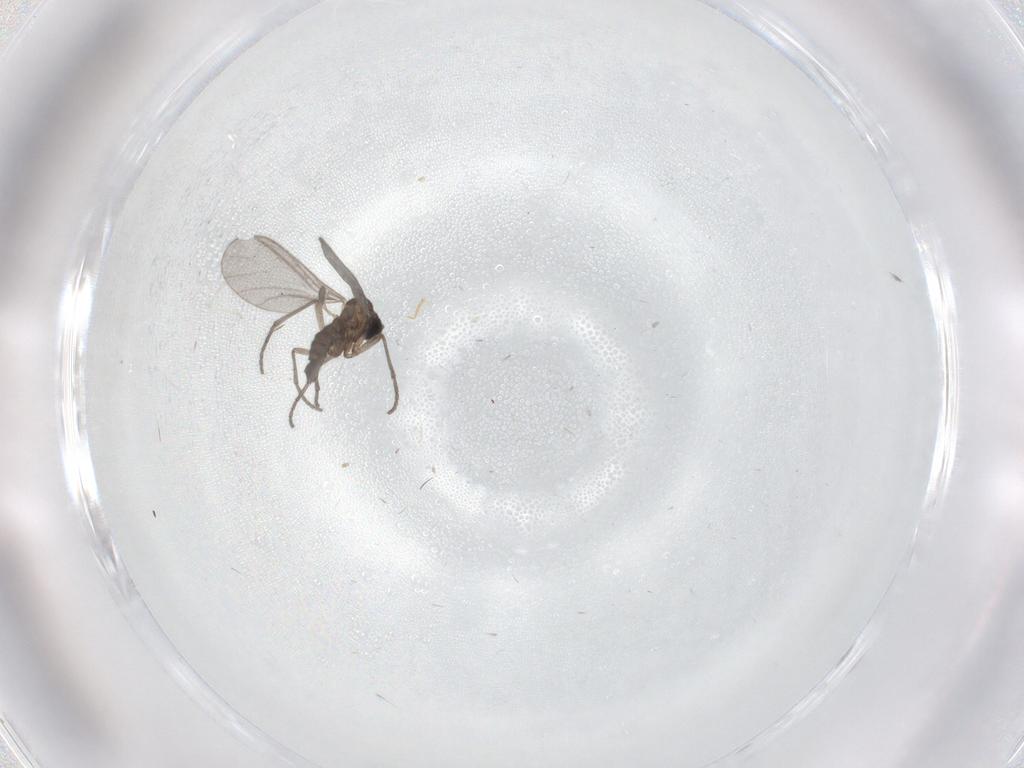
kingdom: Animalia
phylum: Arthropoda
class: Insecta
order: Diptera
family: Sciaridae
